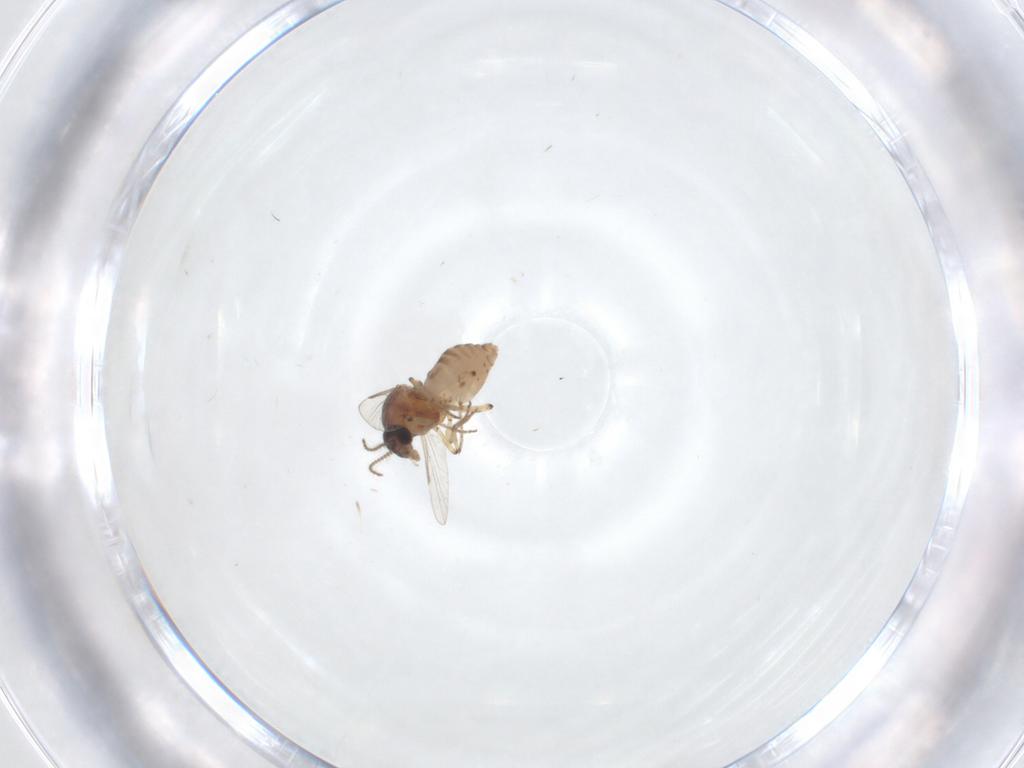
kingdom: Animalia
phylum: Arthropoda
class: Insecta
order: Diptera
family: Ceratopogonidae
